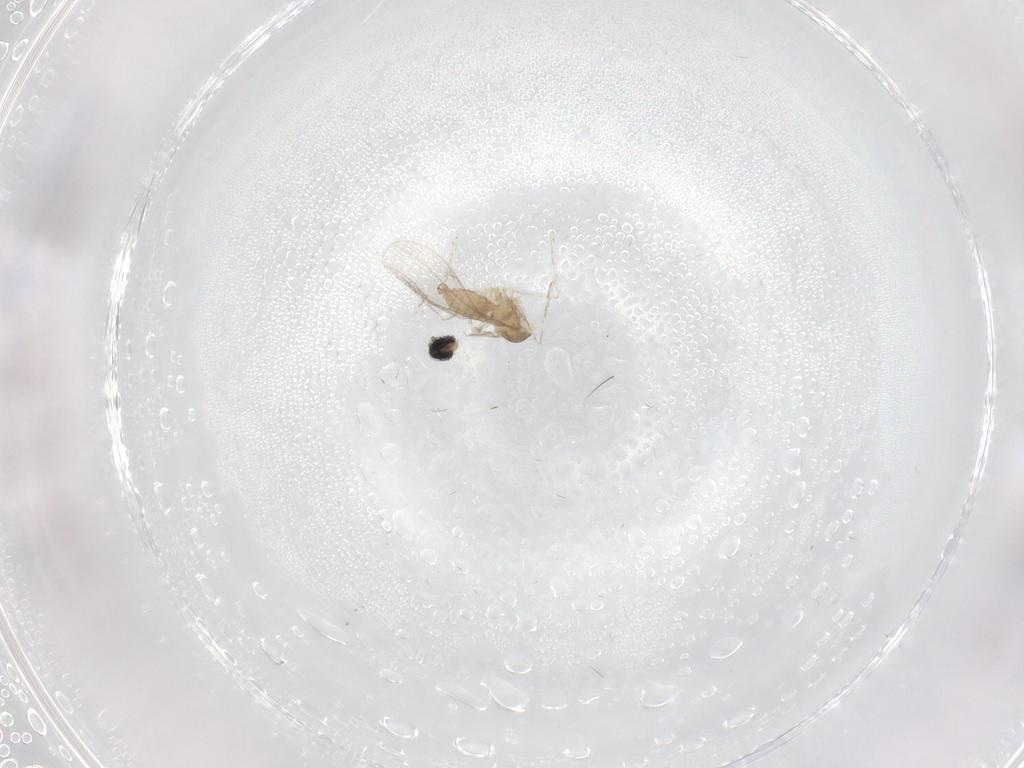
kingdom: Animalia
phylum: Arthropoda
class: Insecta
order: Diptera
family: Cecidomyiidae
